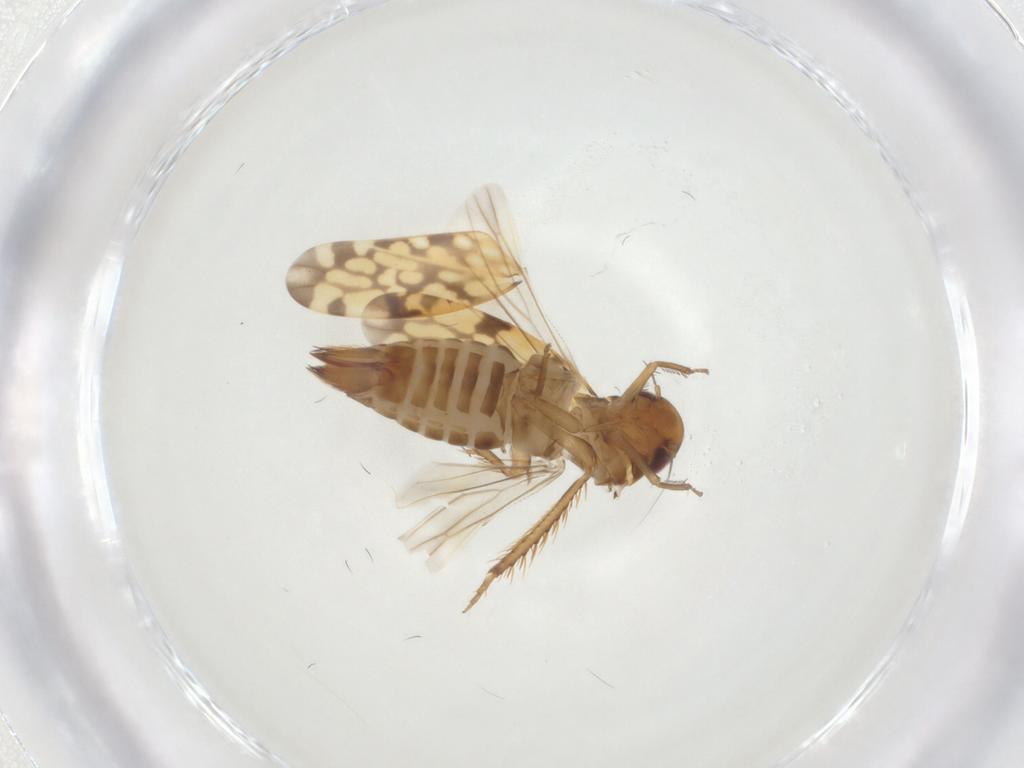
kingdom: Animalia
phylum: Arthropoda
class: Insecta
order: Hemiptera
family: Cicadellidae
